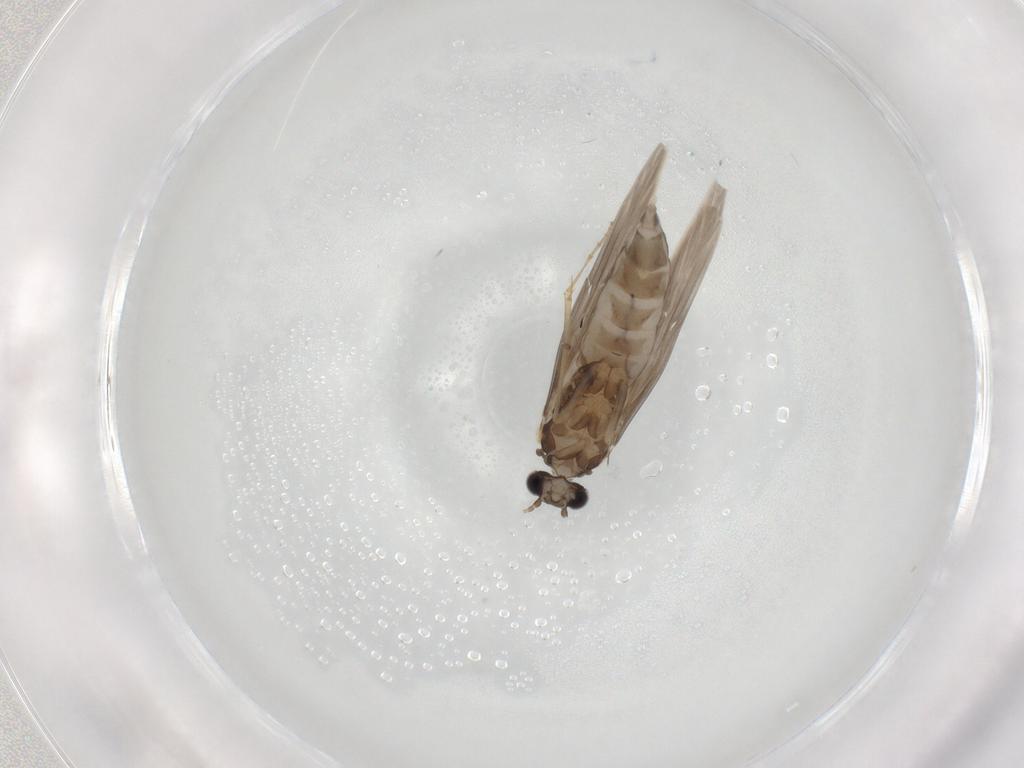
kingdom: Animalia
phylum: Arthropoda
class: Insecta
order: Trichoptera
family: Hydroptilidae
